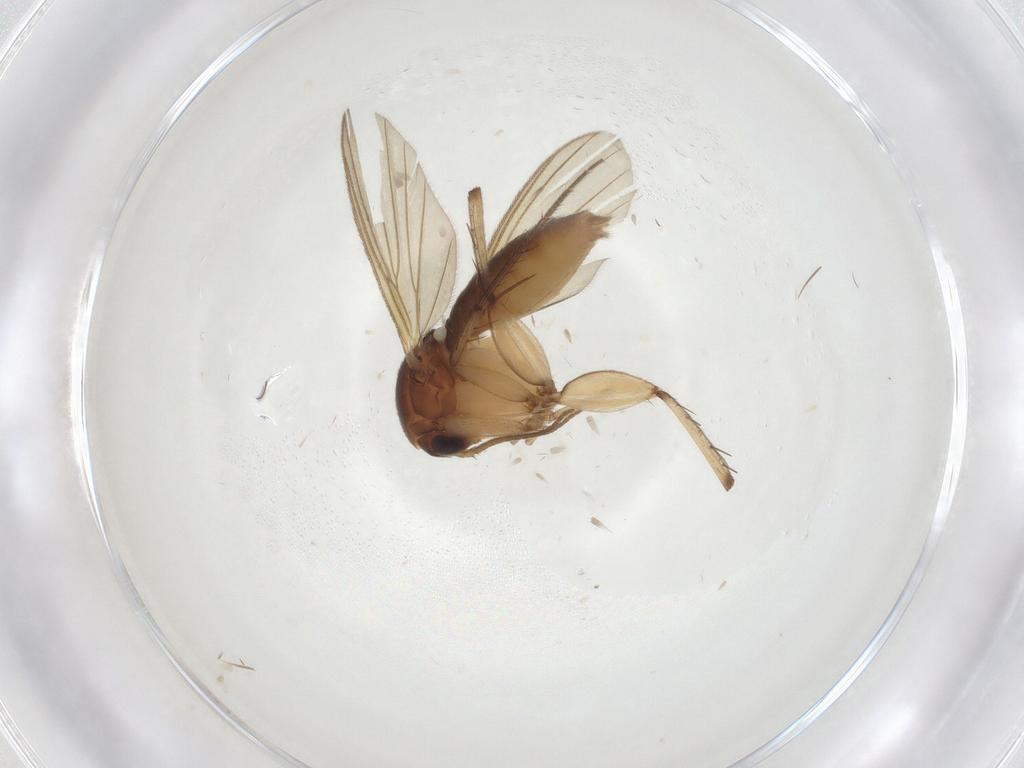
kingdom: Animalia
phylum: Arthropoda
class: Insecta
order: Diptera
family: Mycetophilidae
